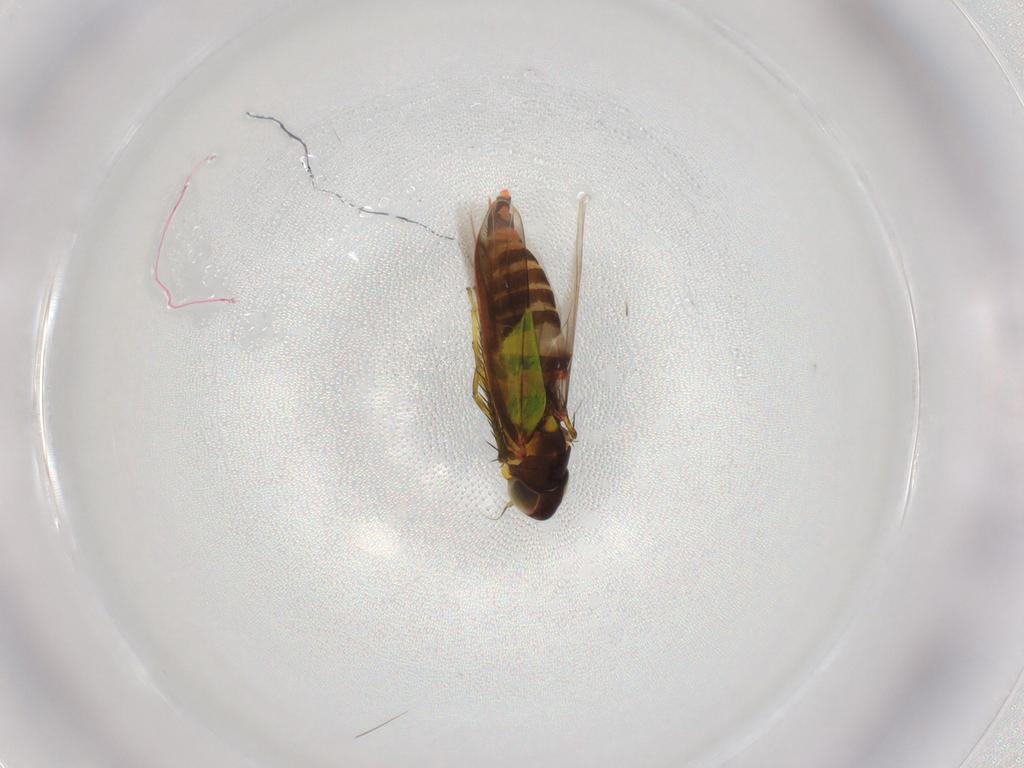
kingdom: Animalia
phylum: Arthropoda
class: Insecta
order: Hemiptera
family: Cicadellidae
